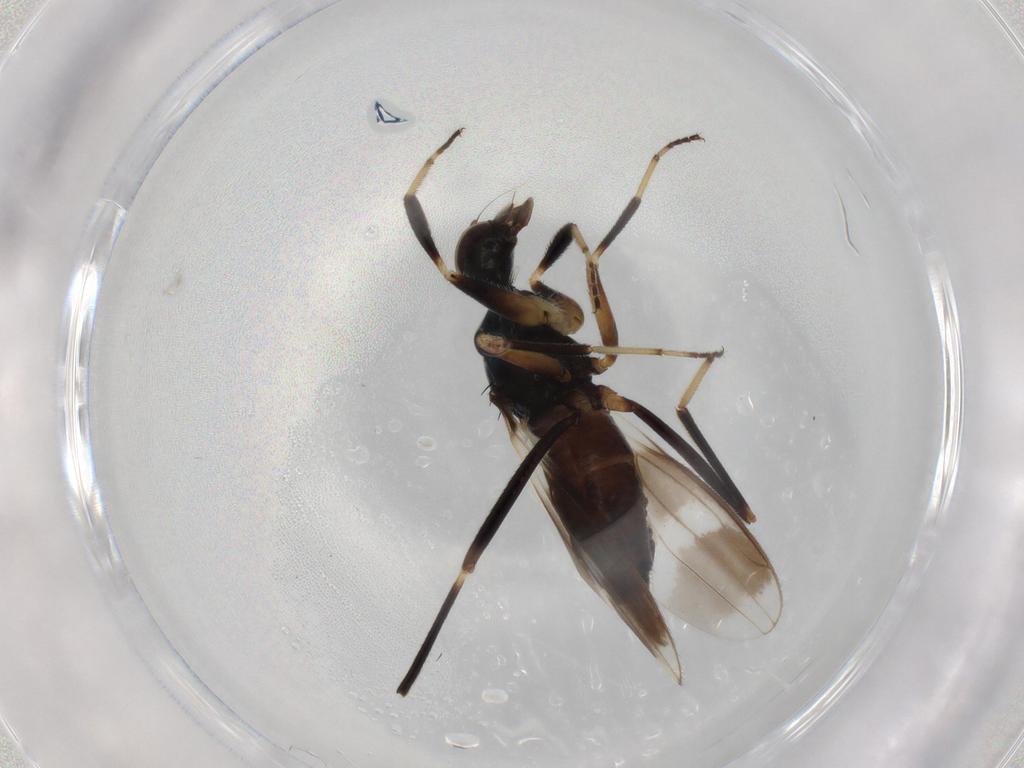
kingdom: Animalia
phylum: Arthropoda
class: Insecta
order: Diptera
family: Hybotidae
